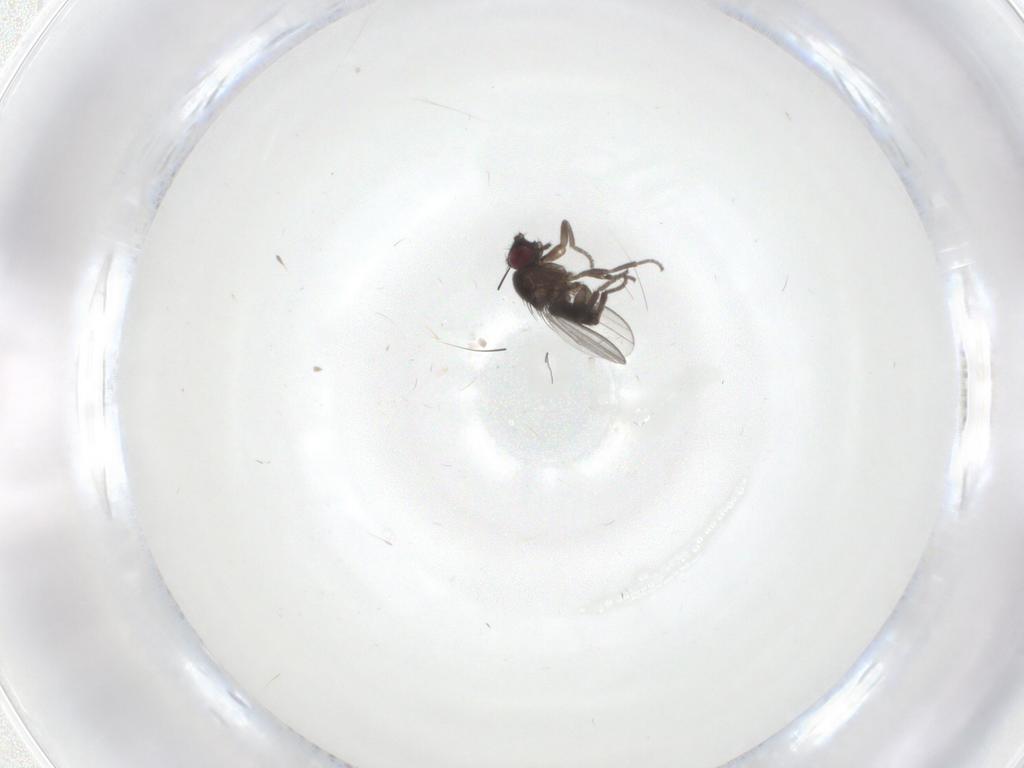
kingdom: Animalia
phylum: Arthropoda
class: Insecta
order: Diptera
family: Milichiidae
